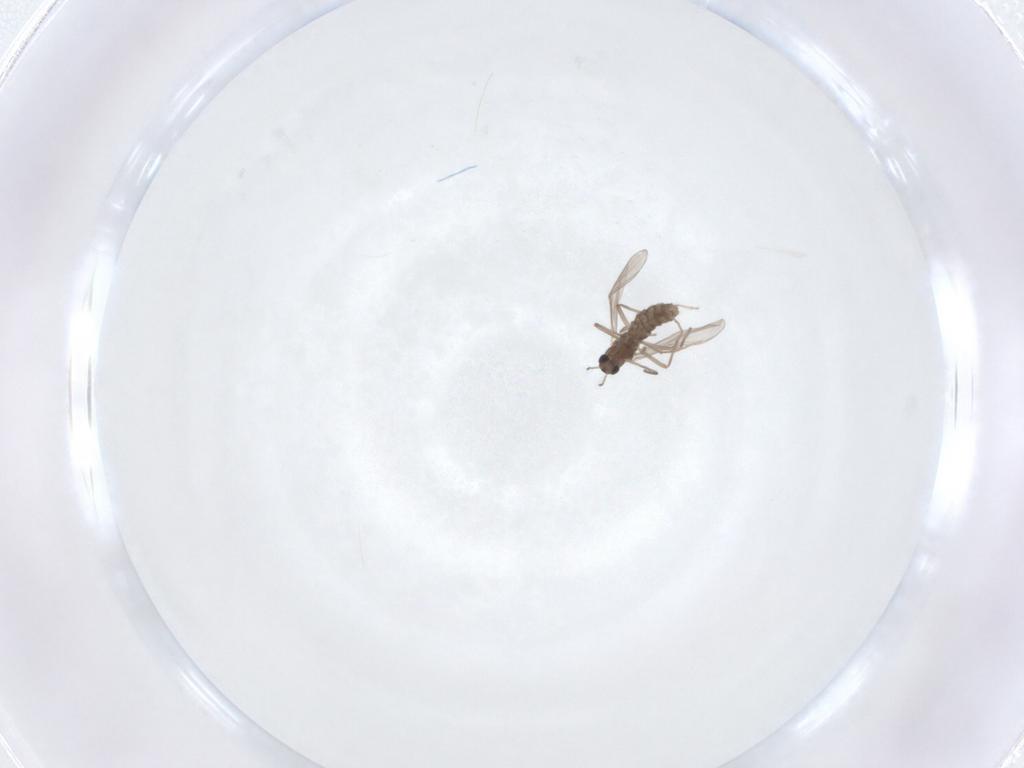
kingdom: Animalia
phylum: Arthropoda
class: Insecta
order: Diptera
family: Chironomidae
